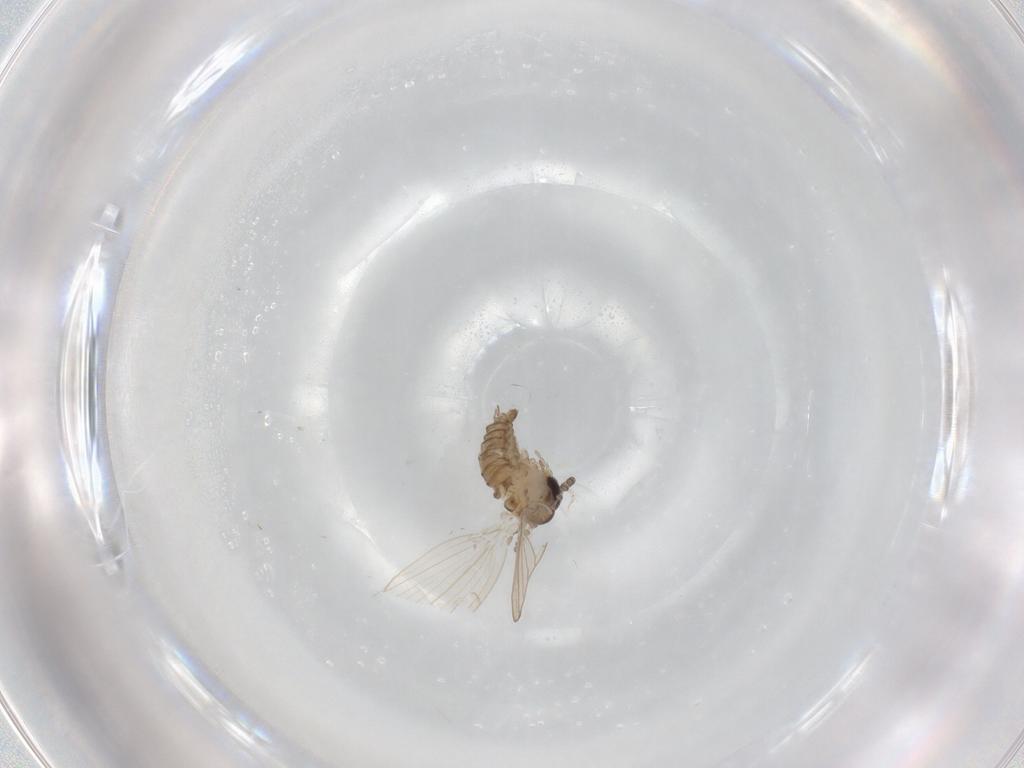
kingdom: Animalia
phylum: Arthropoda
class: Insecta
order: Diptera
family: Psychodidae
